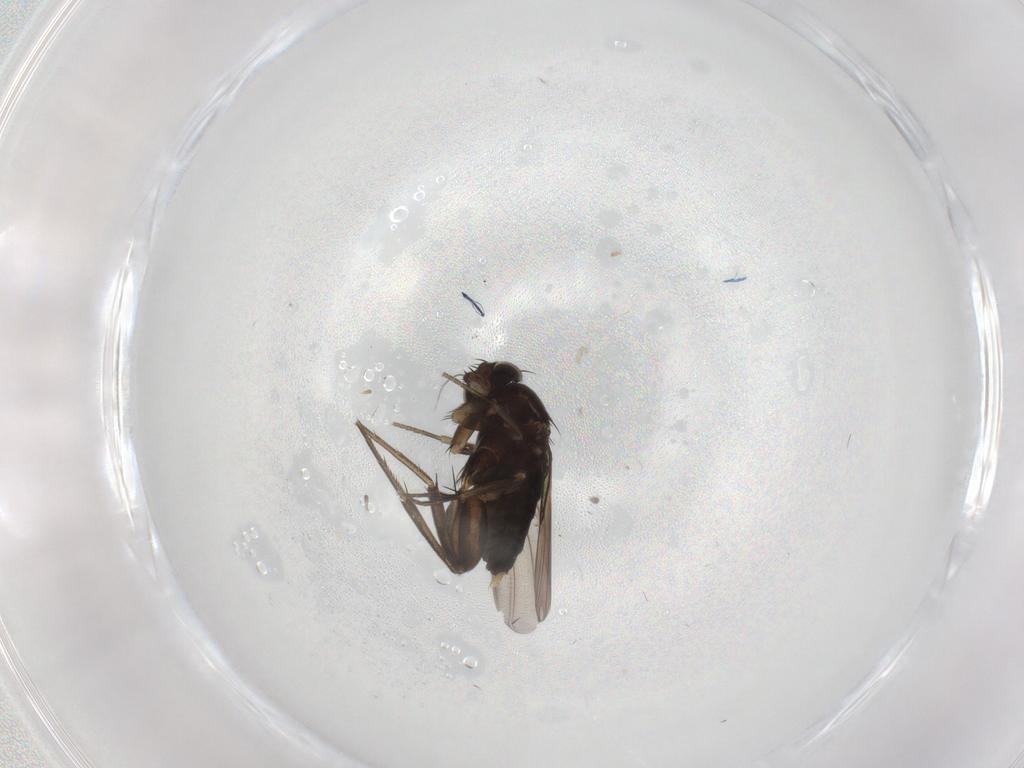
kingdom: Animalia
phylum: Arthropoda
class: Insecta
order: Diptera
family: Phoridae
